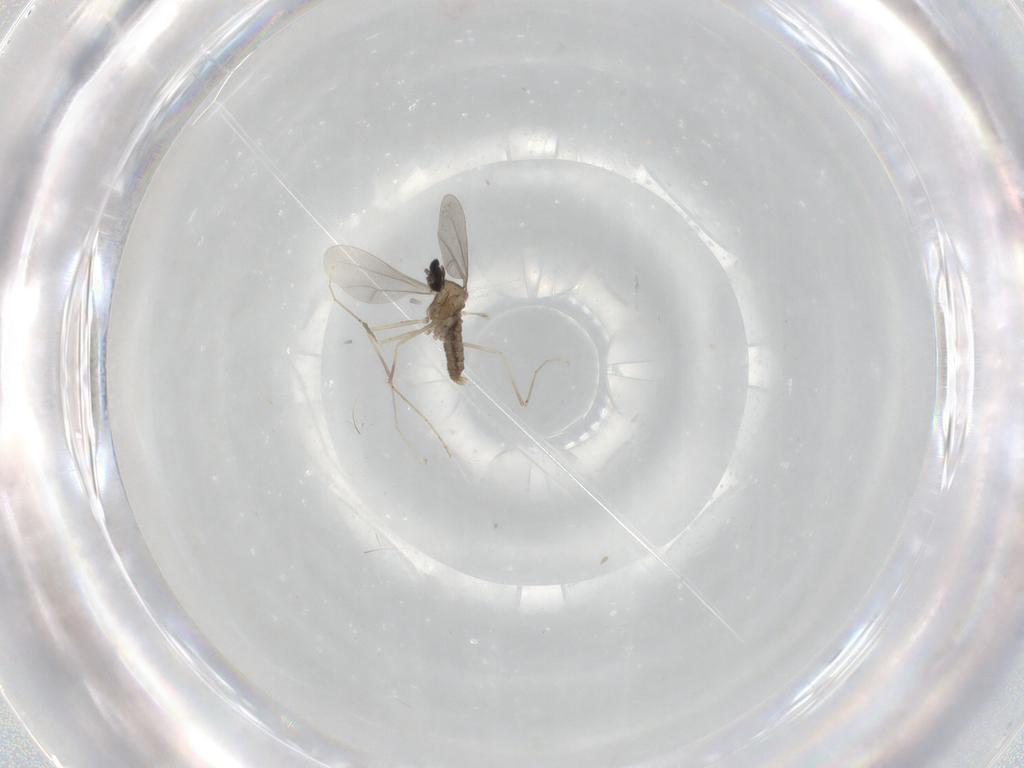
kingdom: Animalia
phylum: Arthropoda
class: Insecta
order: Diptera
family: Cecidomyiidae
